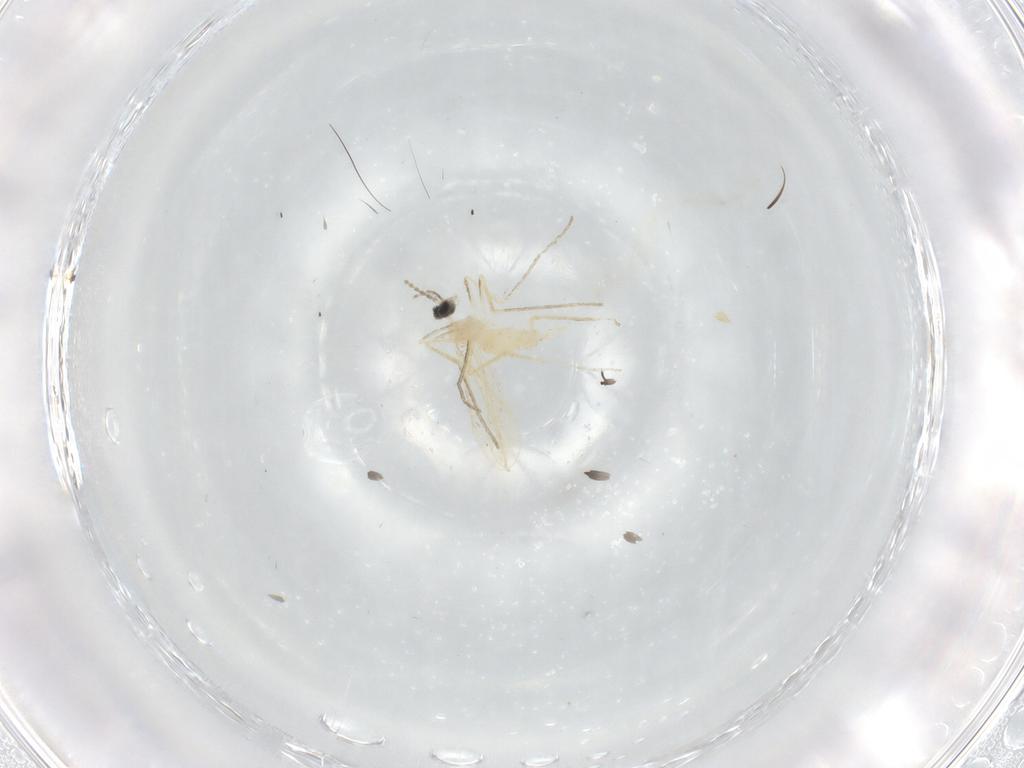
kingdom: Animalia
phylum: Arthropoda
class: Insecta
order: Diptera
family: Cecidomyiidae
